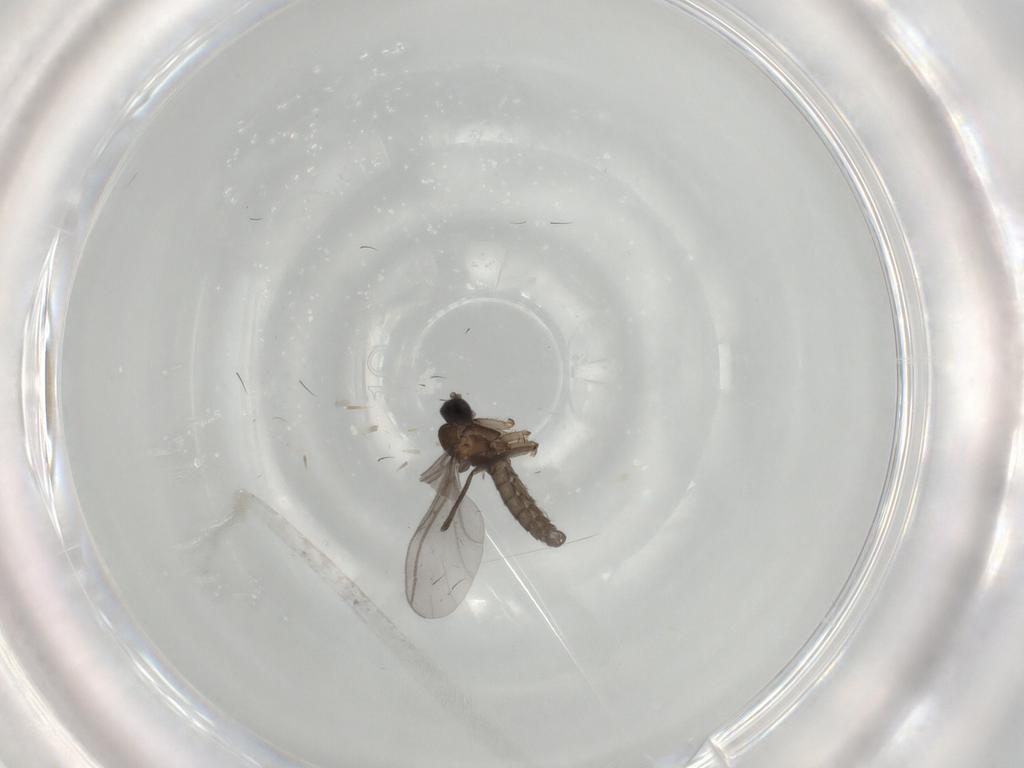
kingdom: Animalia
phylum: Arthropoda
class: Insecta
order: Diptera
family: Sciaridae
